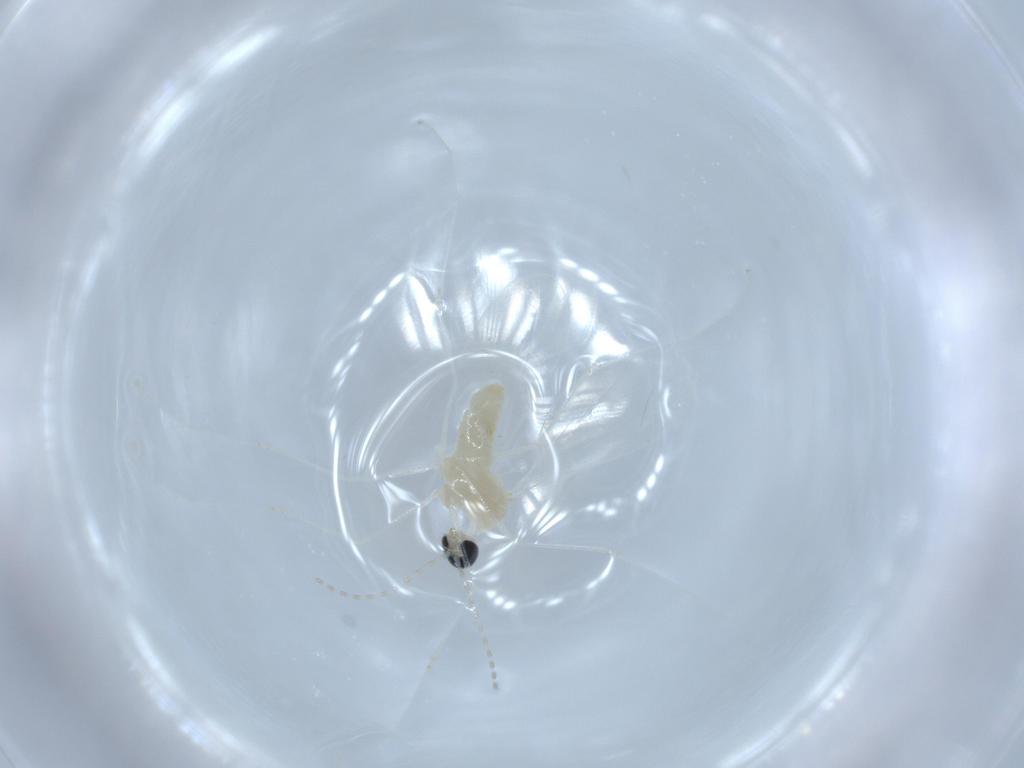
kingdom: Animalia
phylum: Arthropoda
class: Insecta
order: Diptera
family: Cecidomyiidae
